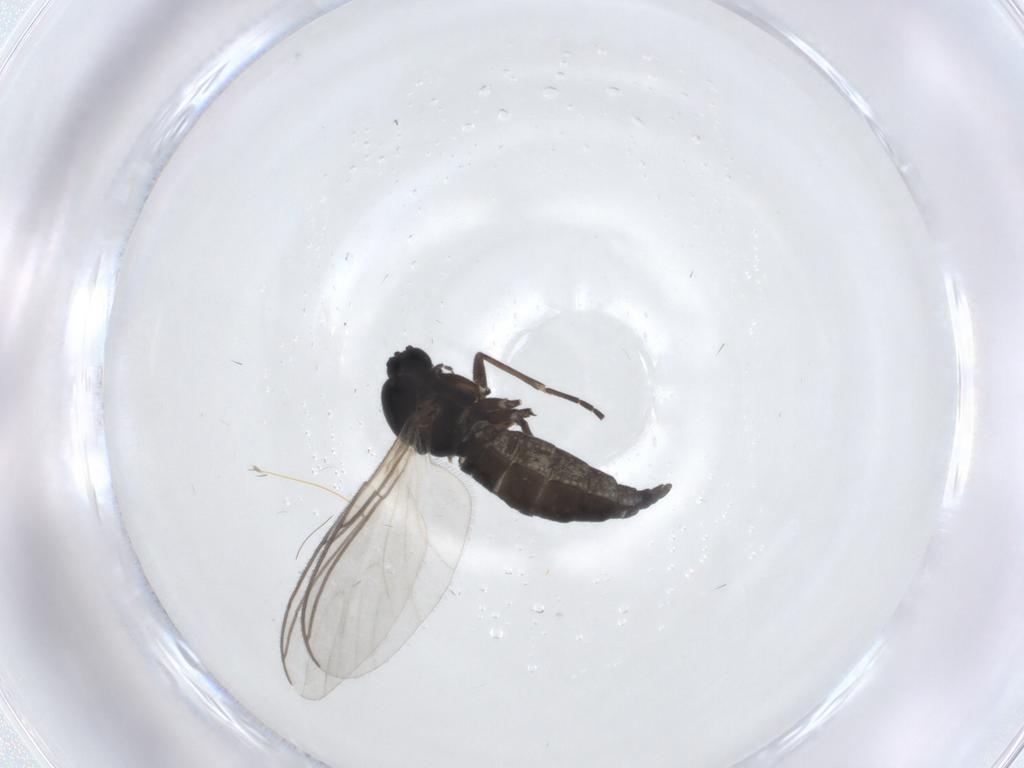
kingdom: Animalia
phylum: Arthropoda
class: Insecta
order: Diptera
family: Sciaridae
